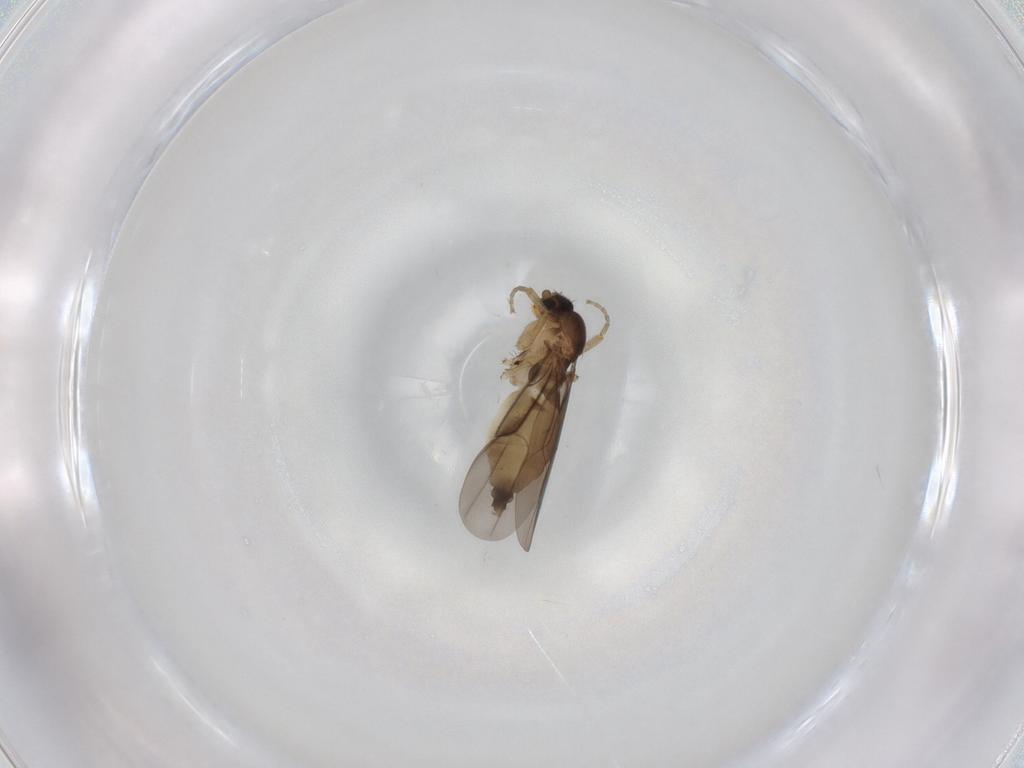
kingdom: Animalia
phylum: Arthropoda
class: Insecta
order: Diptera
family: Phoridae
